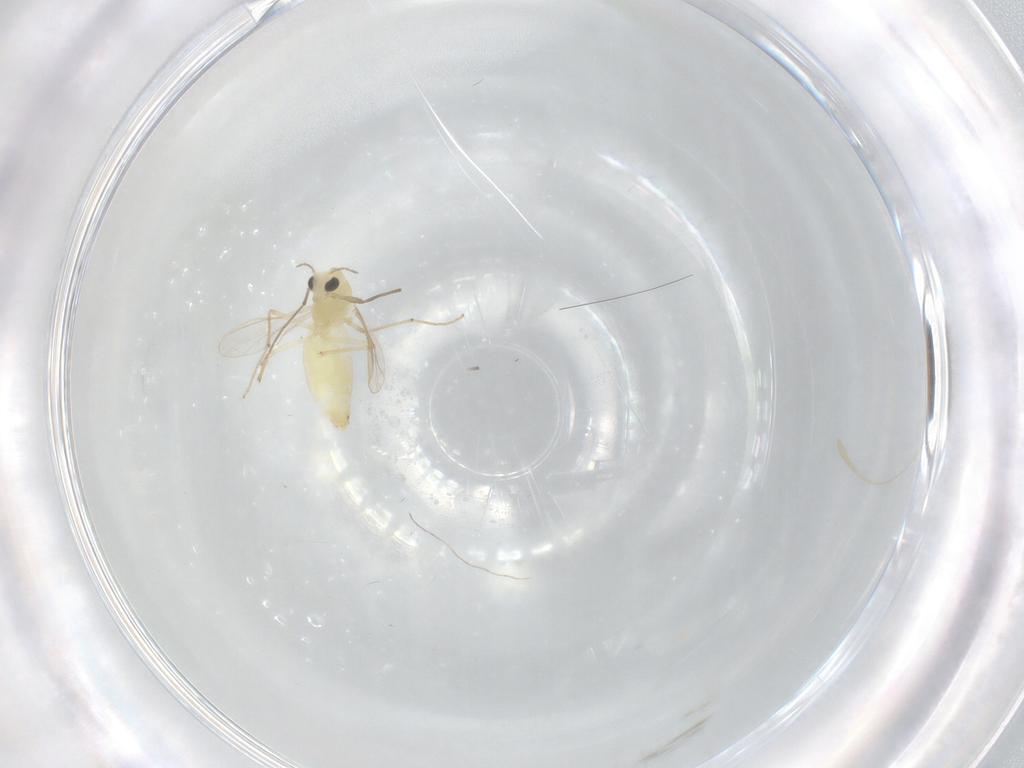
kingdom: Animalia
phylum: Arthropoda
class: Insecta
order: Diptera
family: Chironomidae
